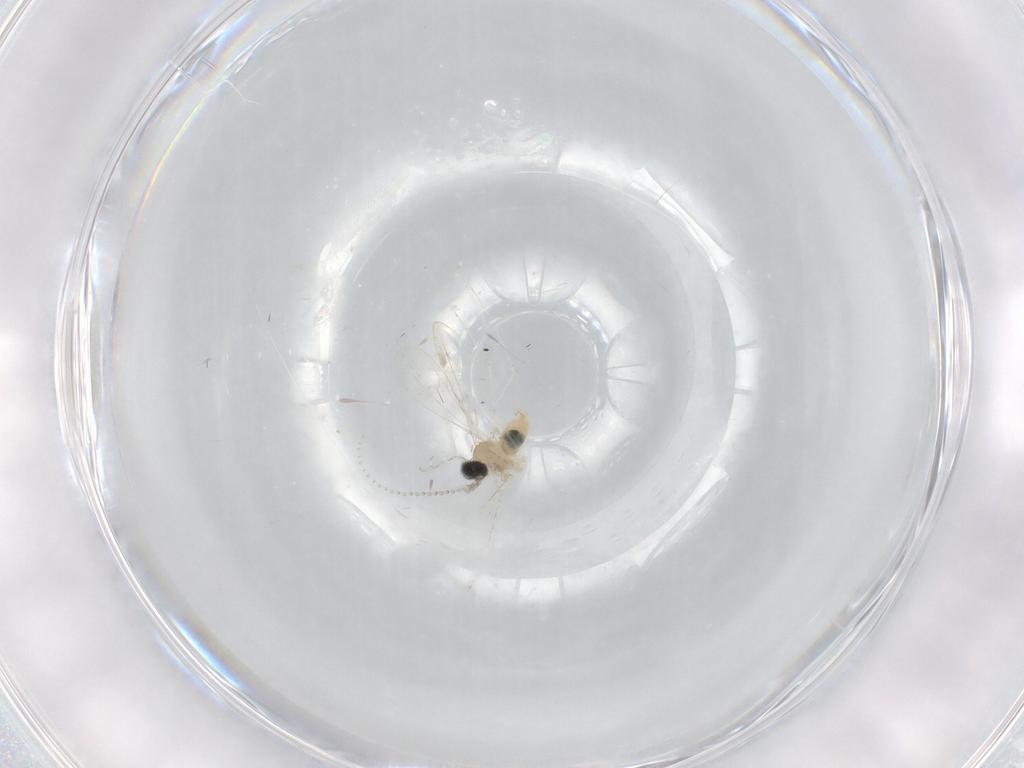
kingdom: Animalia
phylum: Arthropoda
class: Insecta
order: Diptera
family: Cecidomyiidae
